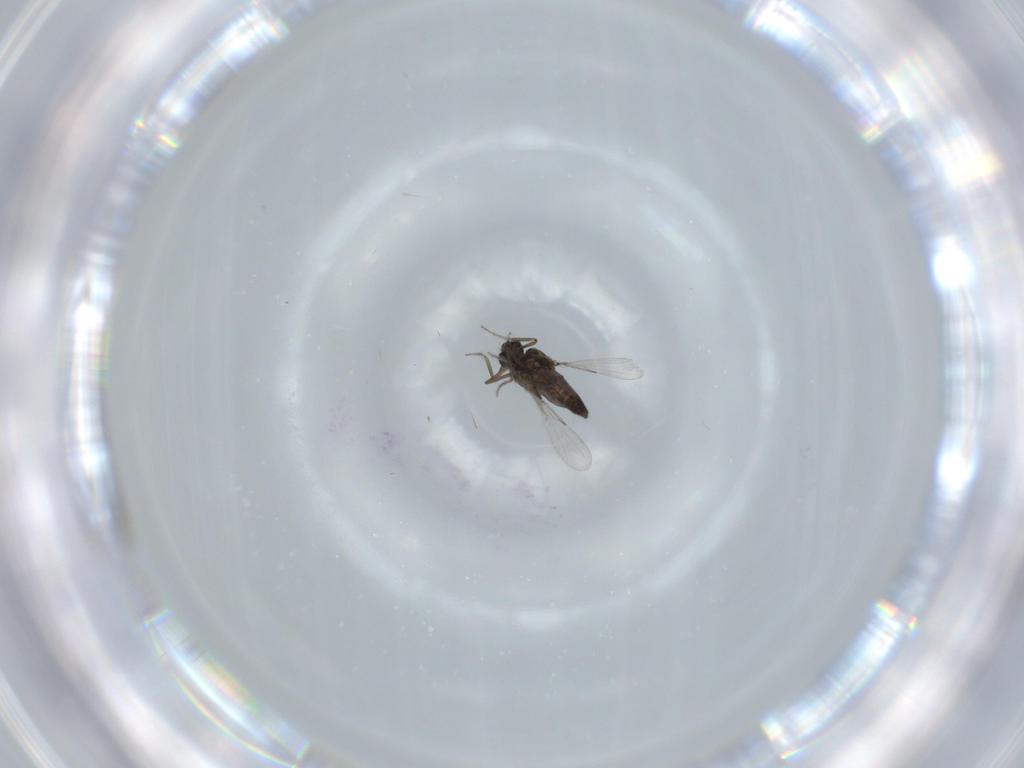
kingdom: Animalia
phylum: Arthropoda
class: Insecta
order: Diptera
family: Ceratopogonidae
